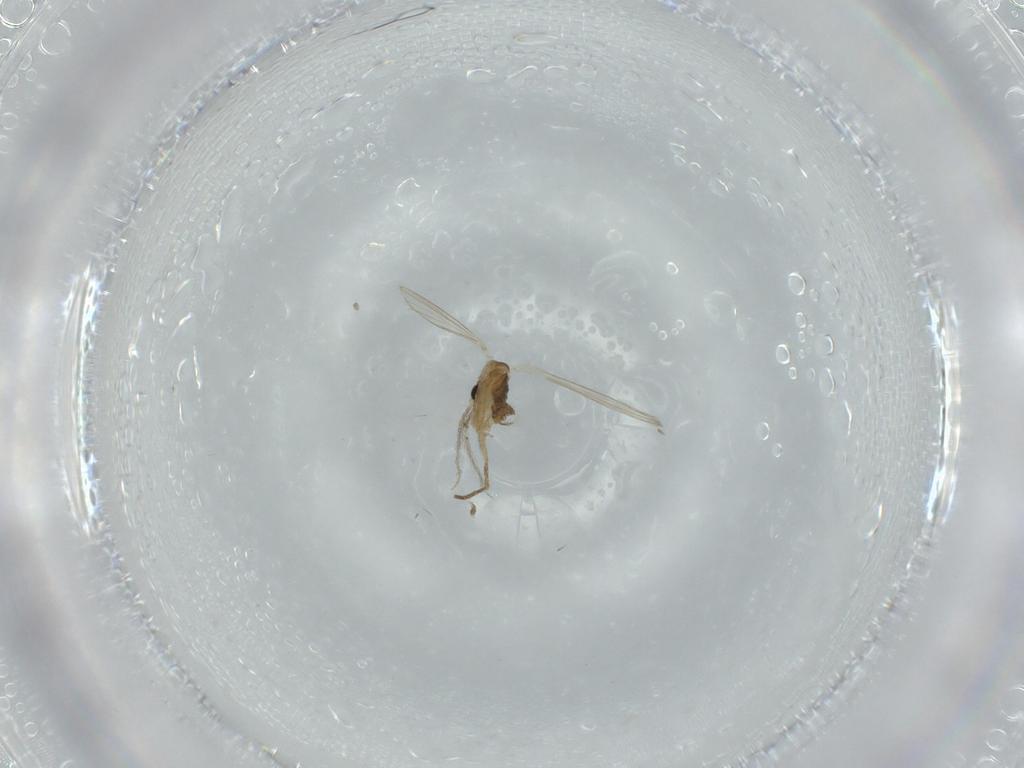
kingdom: Animalia
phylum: Arthropoda
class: Insecta
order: Diptera
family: Psychodidae
